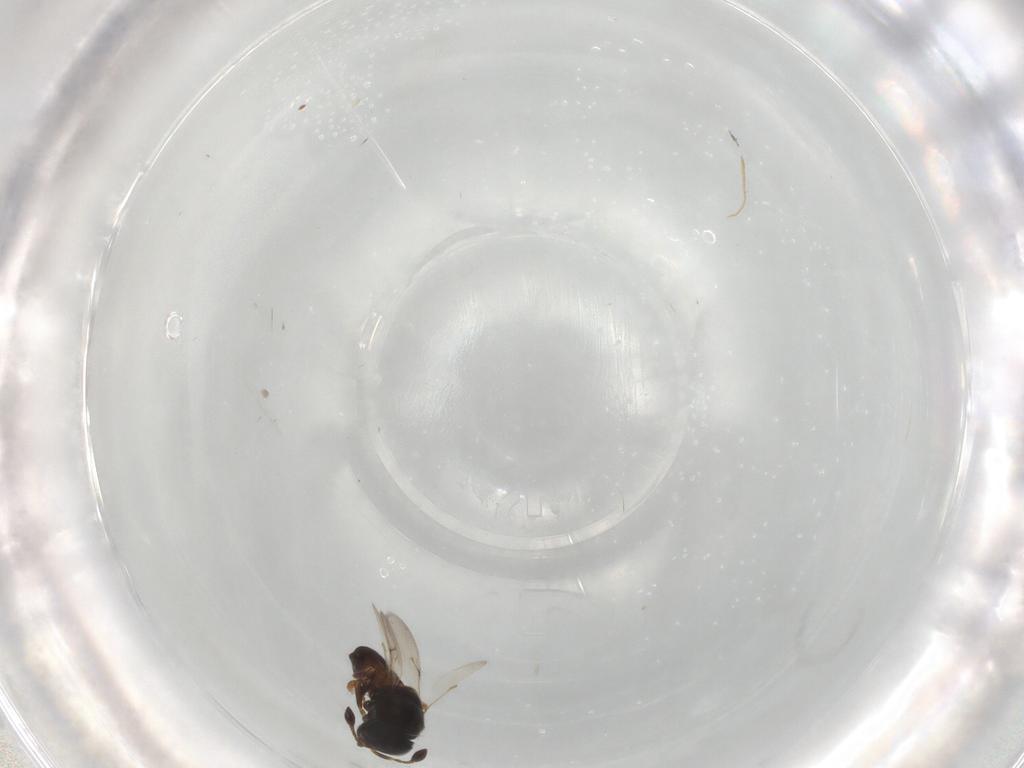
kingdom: Animalia
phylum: Arthropoda
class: Insecta
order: Hymenoptera
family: Scelionidae
